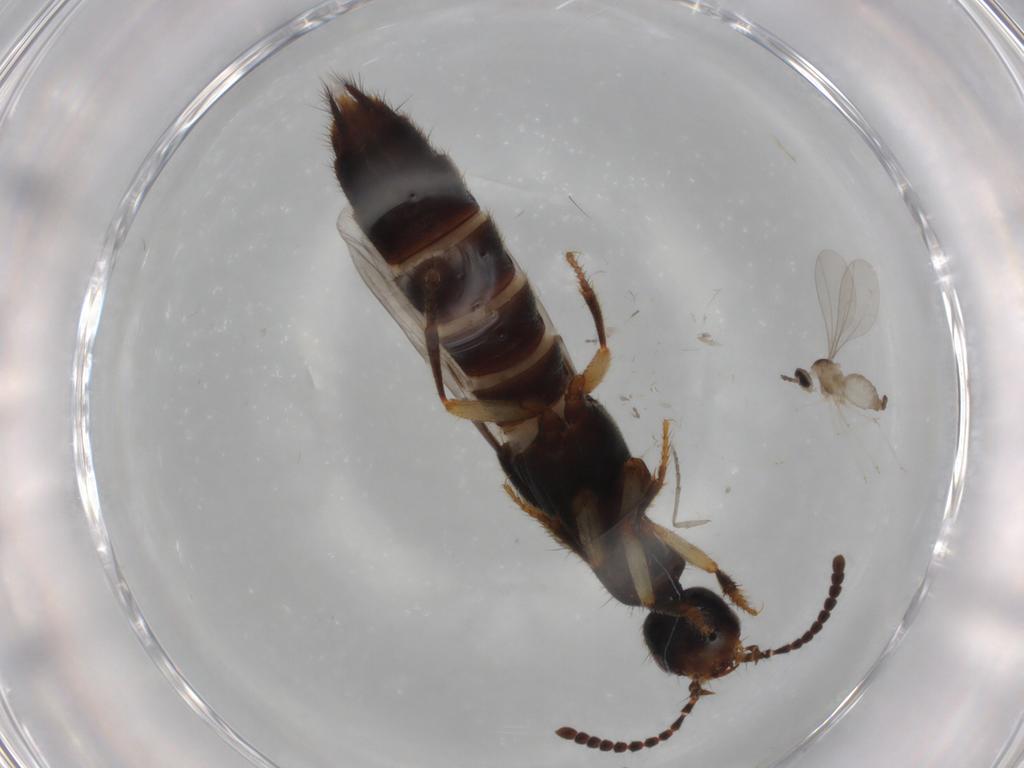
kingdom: Animalia
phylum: Arthropoda
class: Insecta
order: Diptera
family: Sciaridae
